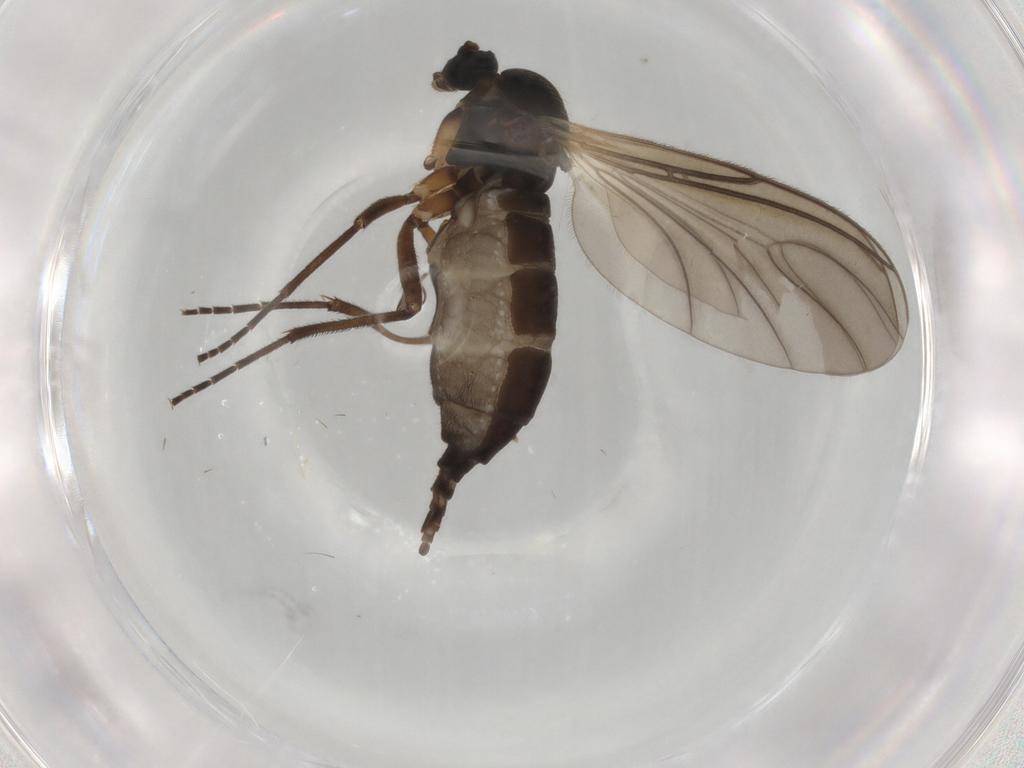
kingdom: Animalia
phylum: Arthropoda
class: Insecta
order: Diptera
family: Sciaridae
